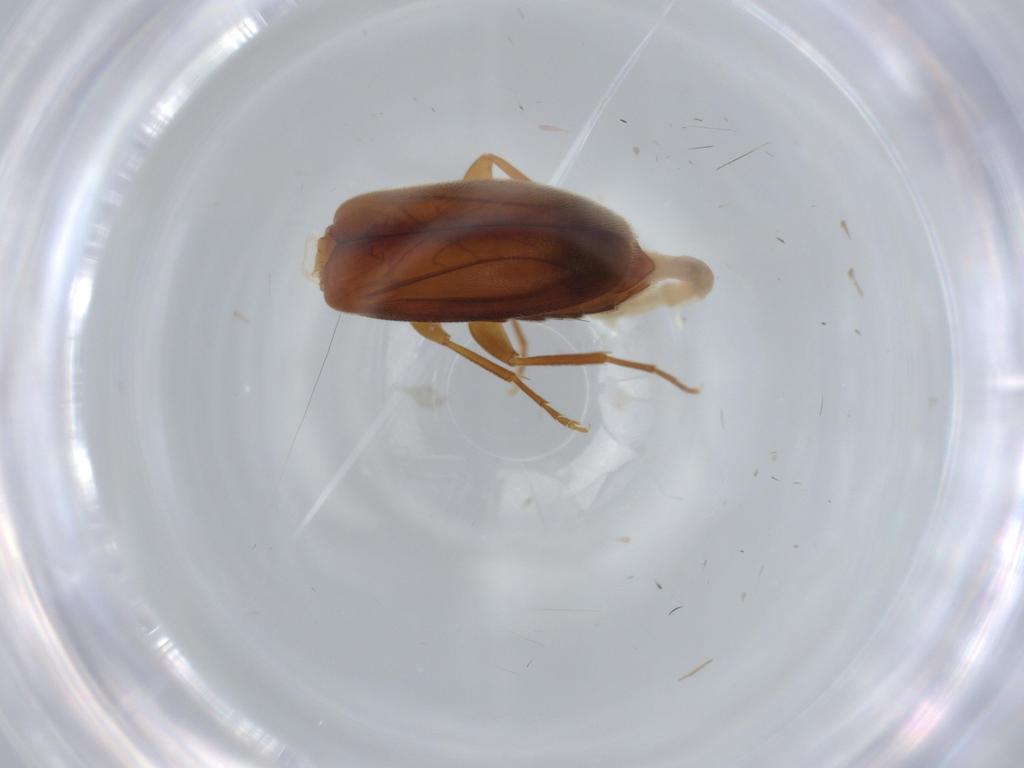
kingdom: Animalia
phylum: Arthropoda
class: Insecta
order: Coleoptera
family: Scraptiidae
